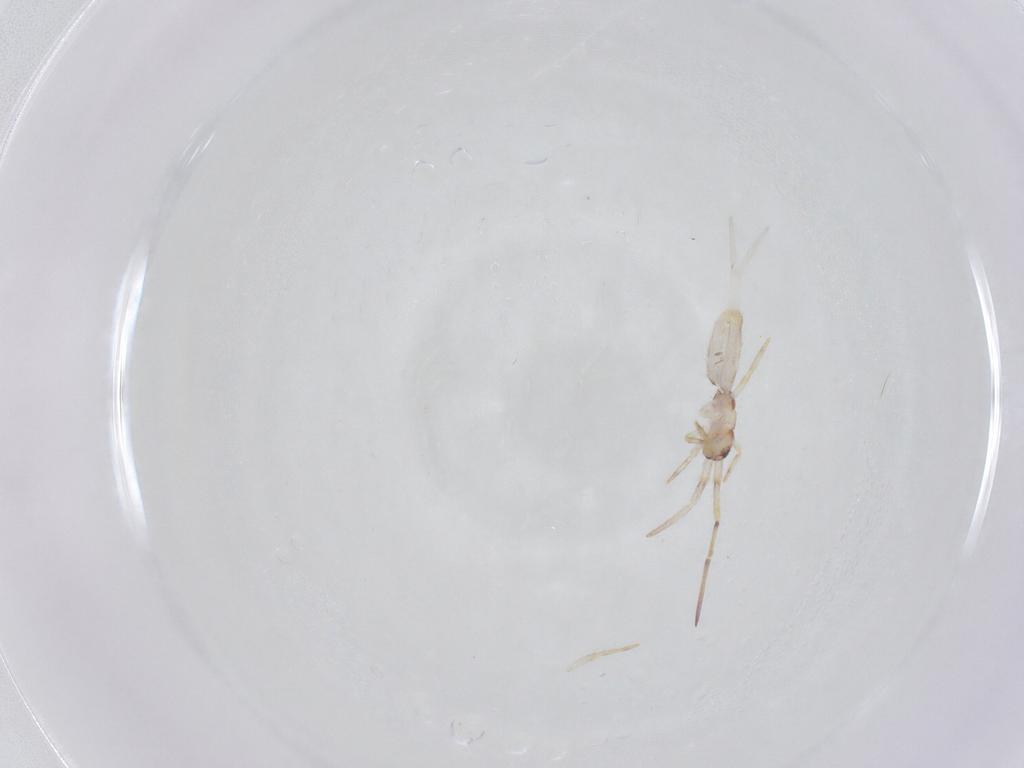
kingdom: Animalia
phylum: Arthropoda
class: Collembola
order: Entomobryomorpha
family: Entomobryidae
